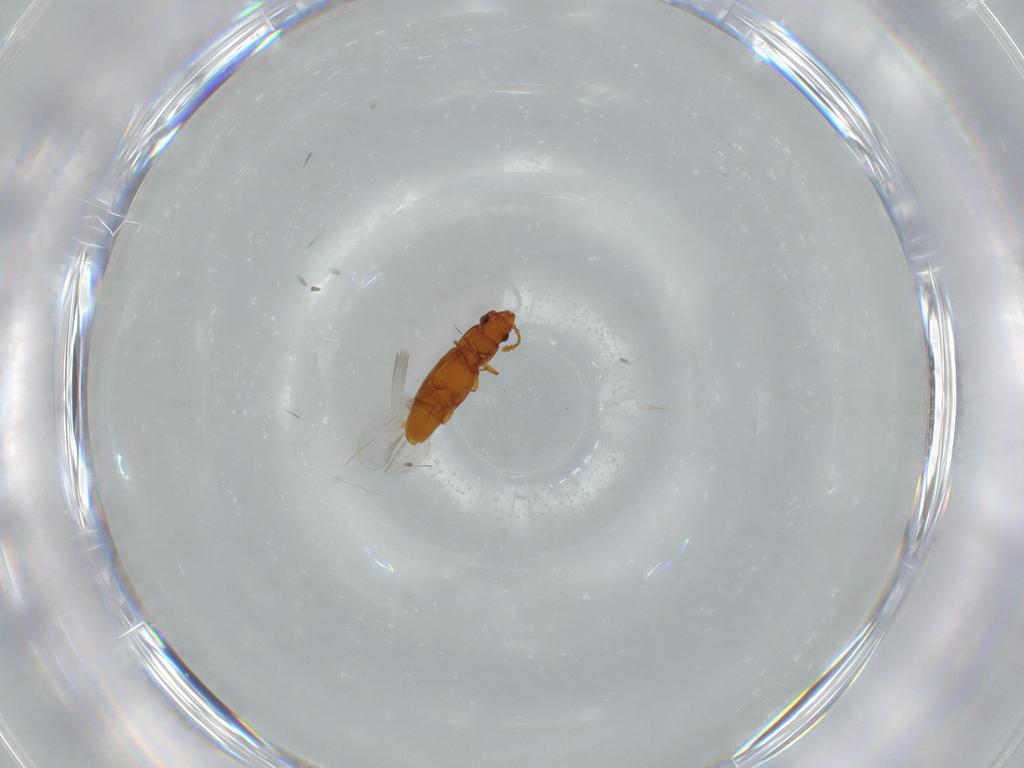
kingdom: Animalia
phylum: Arthropoda
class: Insecta
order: Coleoptera
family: Smicripidae
